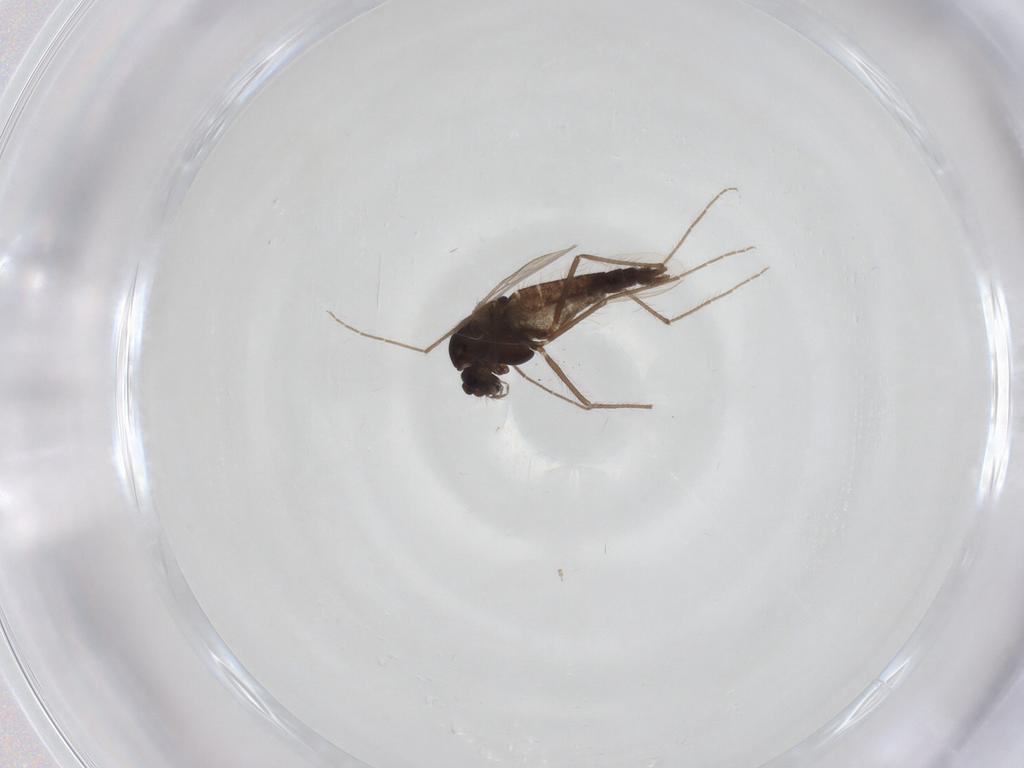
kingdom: Animalia
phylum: Arthropoda
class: Insecta
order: Diptera
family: Chironomidae
